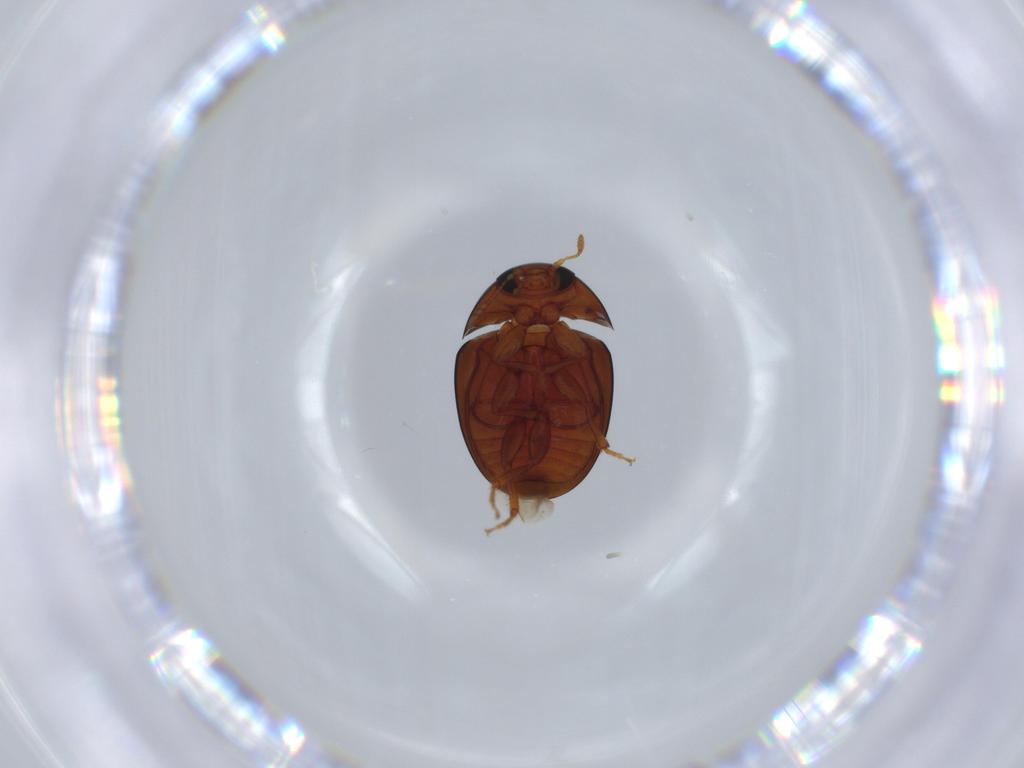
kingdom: Animalia
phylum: Arthropoda
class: Insecta
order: Coleoptera
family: Phalacridae
